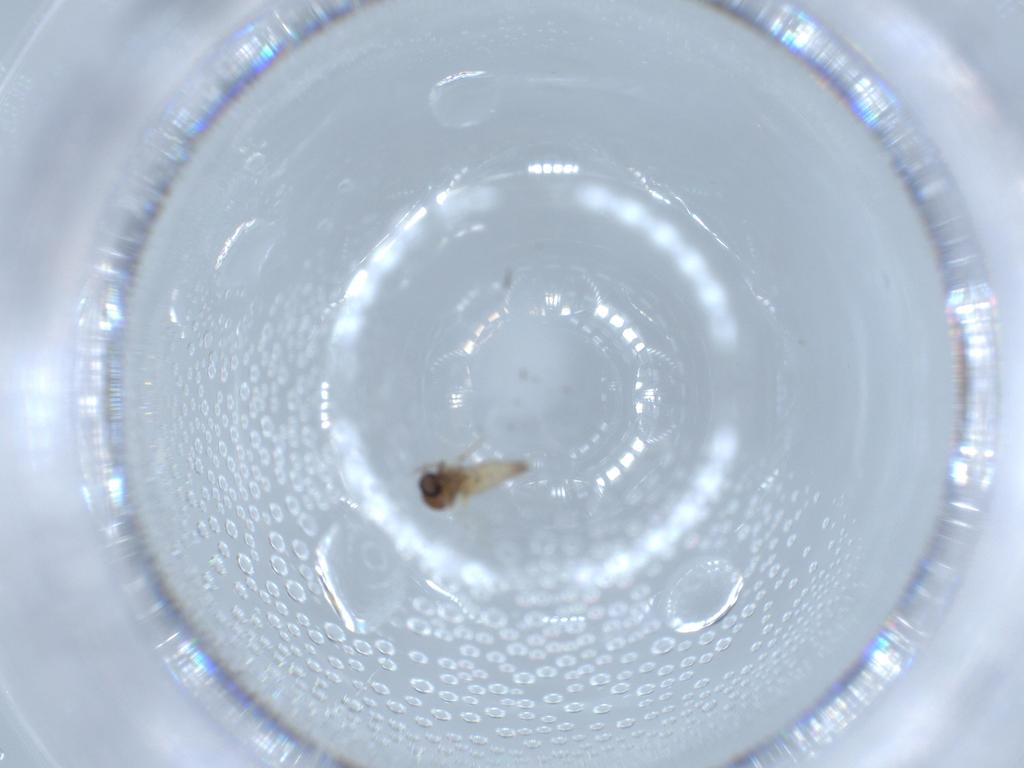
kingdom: Animalia
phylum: Arthropoda
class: Insecta
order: Diptera
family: Ceratopogonidae
